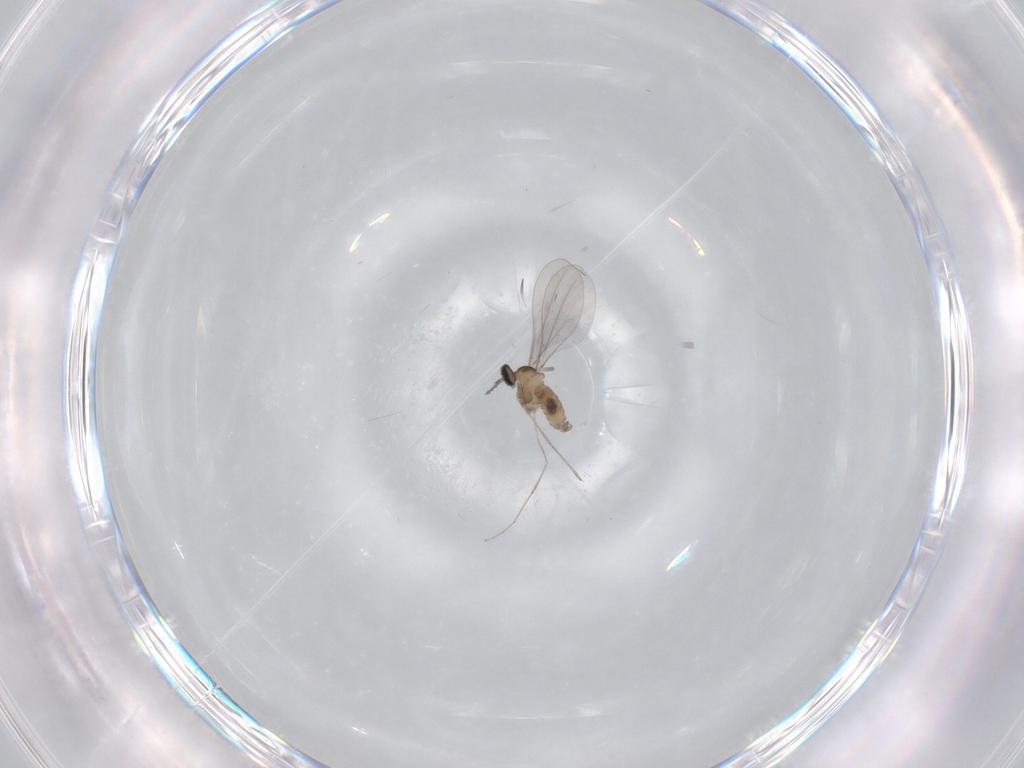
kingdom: Animalia
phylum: Arthropoda
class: Insecta
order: Diptera
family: Cecidomyiidae
